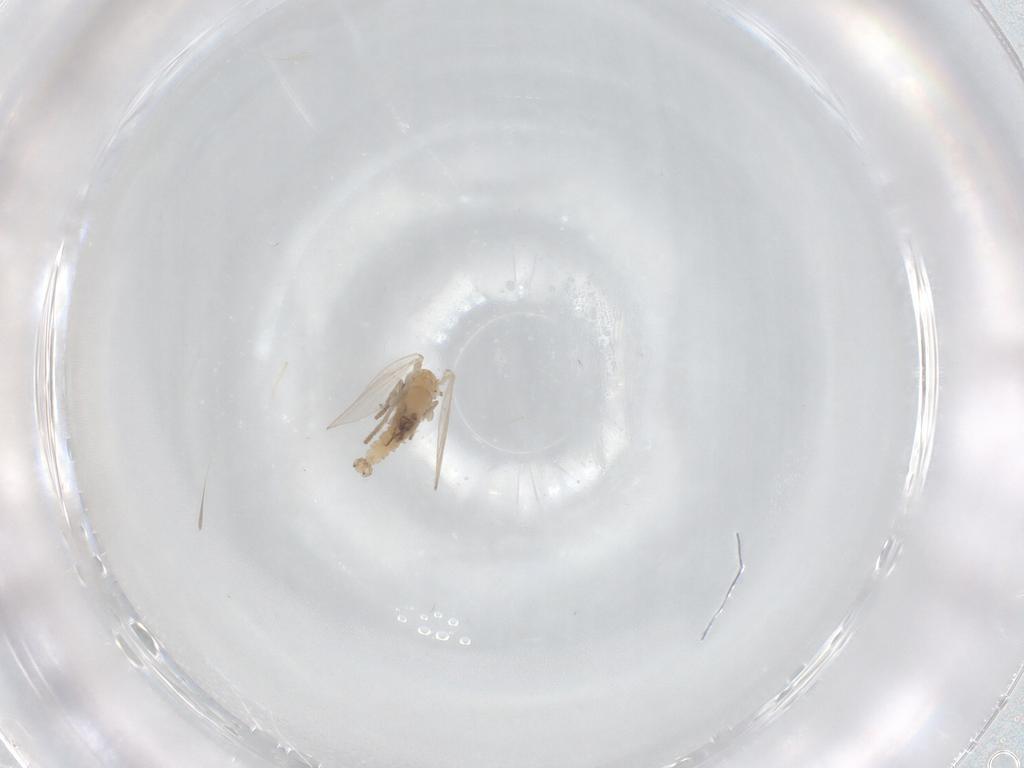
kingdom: Animalia
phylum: Arthropoda
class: Insecta
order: Diptera
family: Psychodidae
